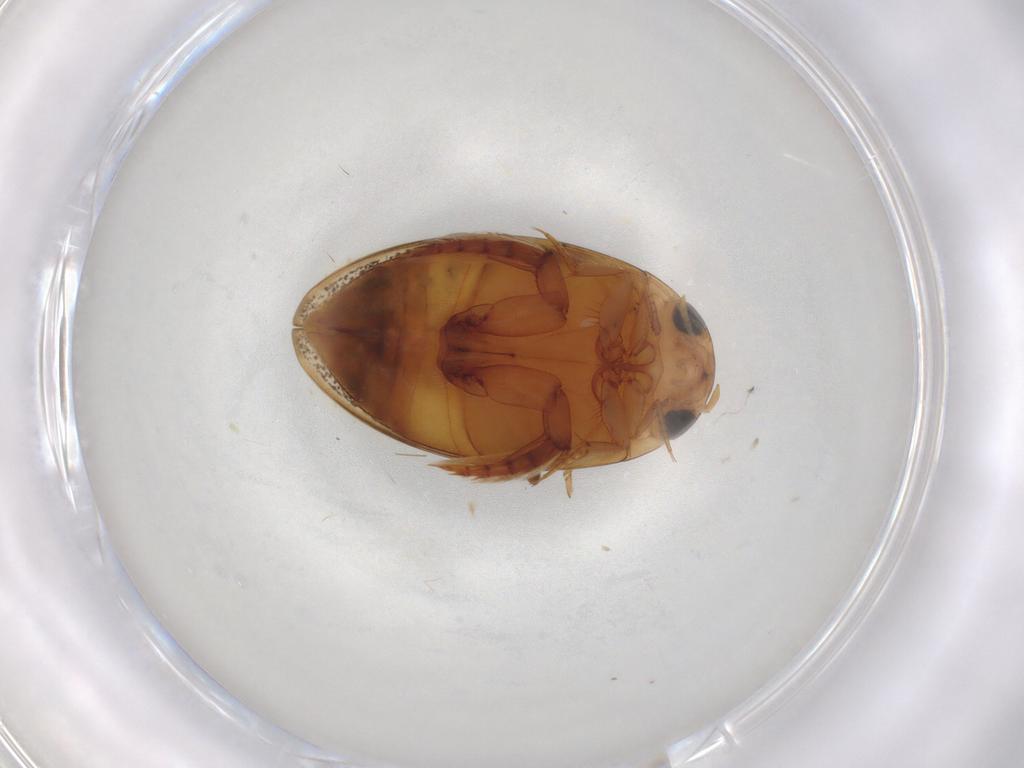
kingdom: Animalia
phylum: Arthropoda
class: Insecta
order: Coleoptera
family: Dytiscidae
